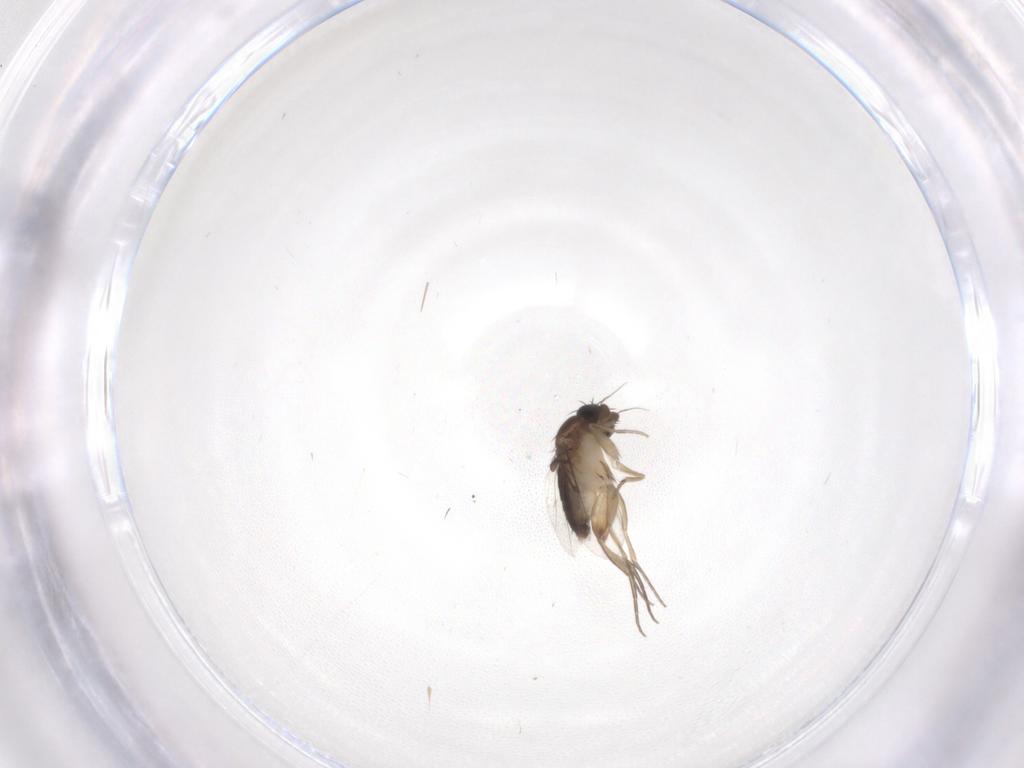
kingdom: Animalia
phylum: Arthropoda
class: Insecta
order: Diptera
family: Phoridae
